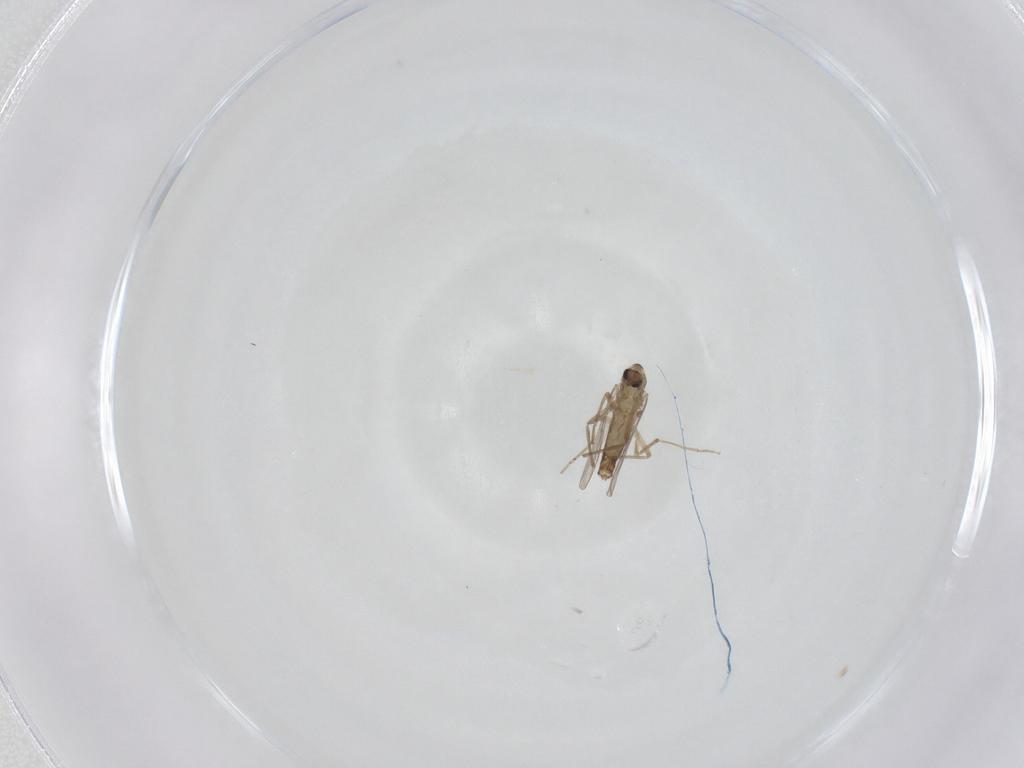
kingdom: Animalia
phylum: Arthropoda
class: Insecta
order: Diptera
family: Chironomidae
